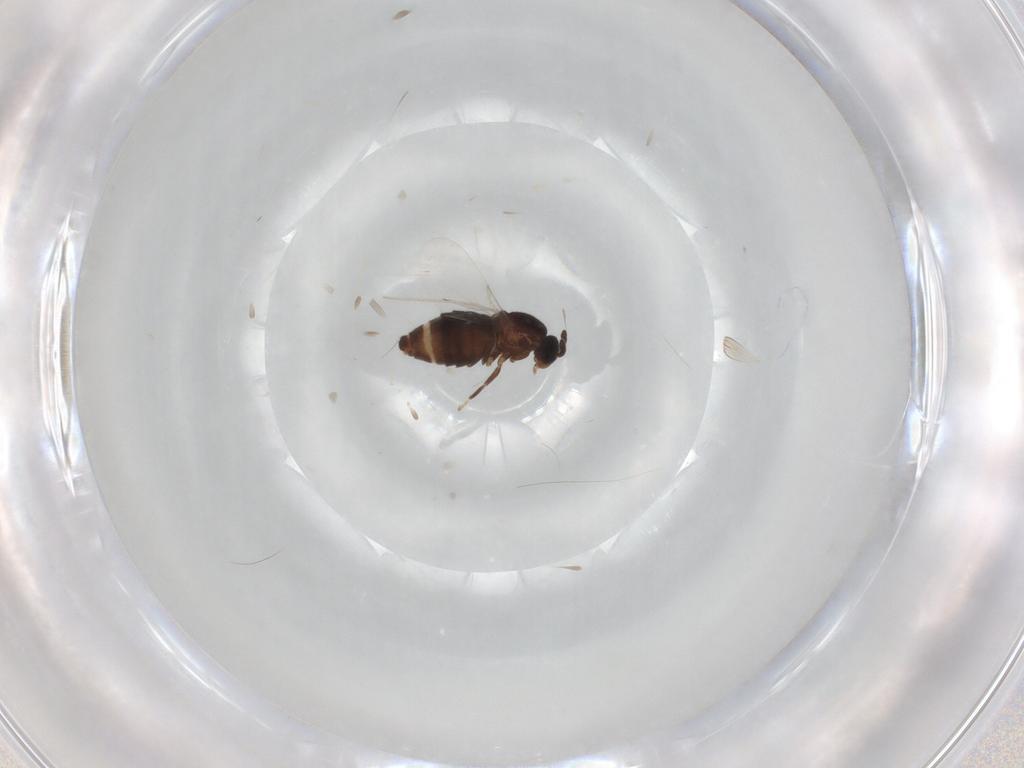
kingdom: Animalia
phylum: Arthropoda
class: Insecta
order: Diptera
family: Scatopsidae
